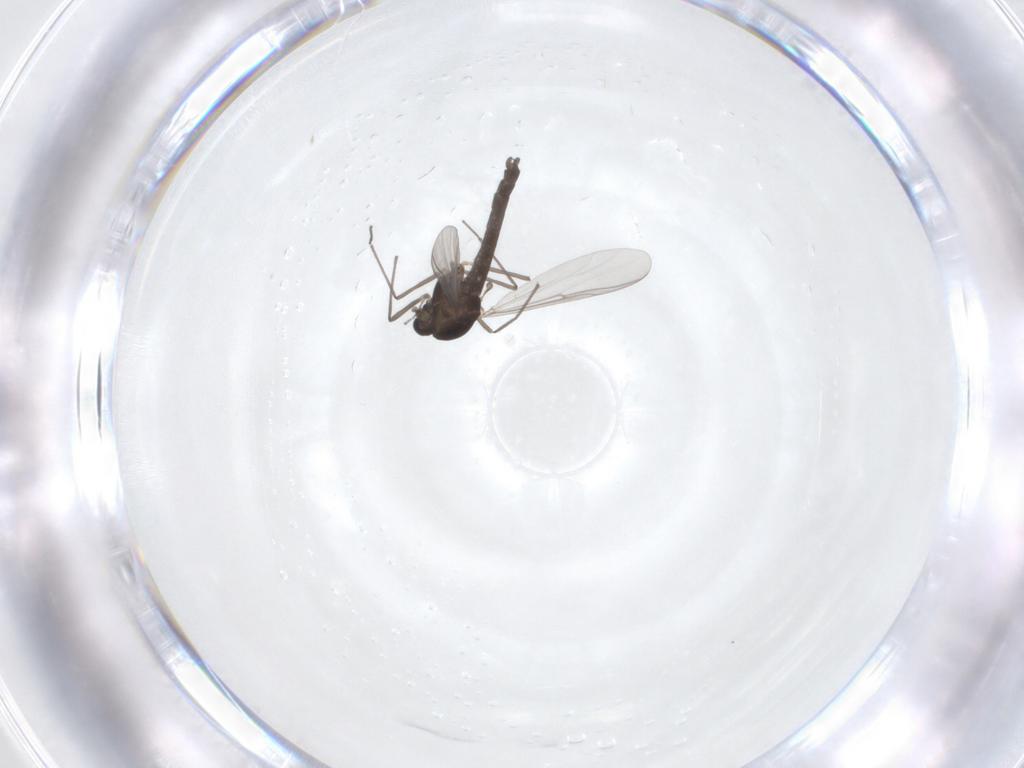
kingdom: Animalia
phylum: Arthropoda
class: Insecta
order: Diptera
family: Chironomidae
